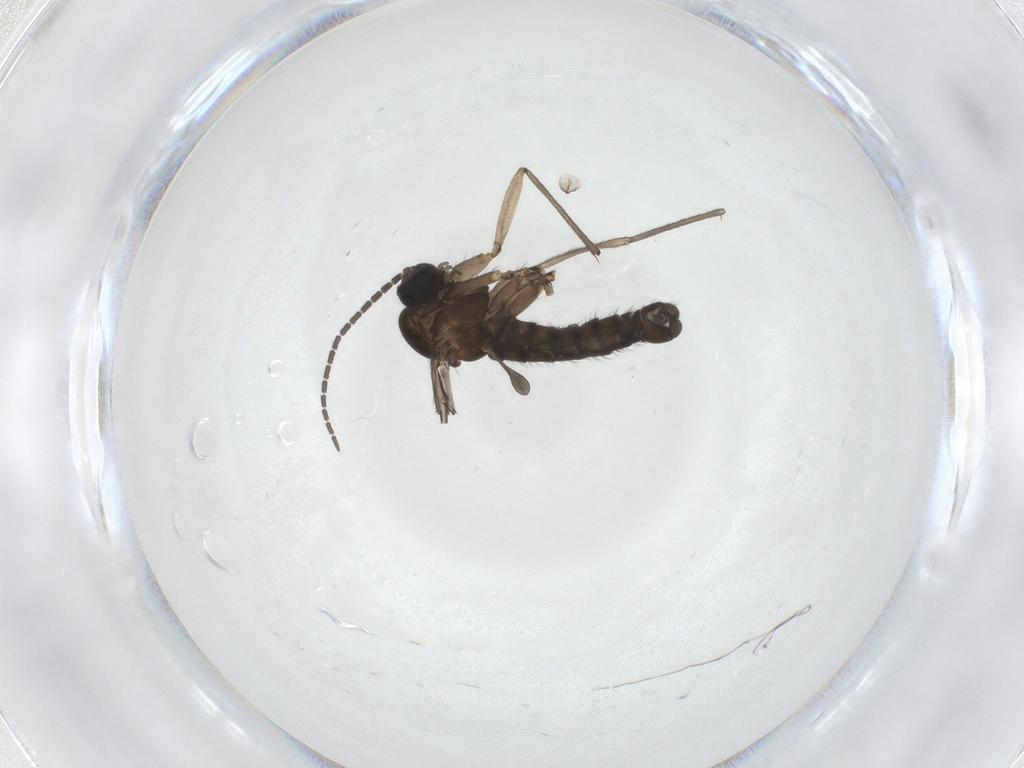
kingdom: Animalia
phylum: Arthropoda
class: Insecta
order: Diptera
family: Sciaridae
